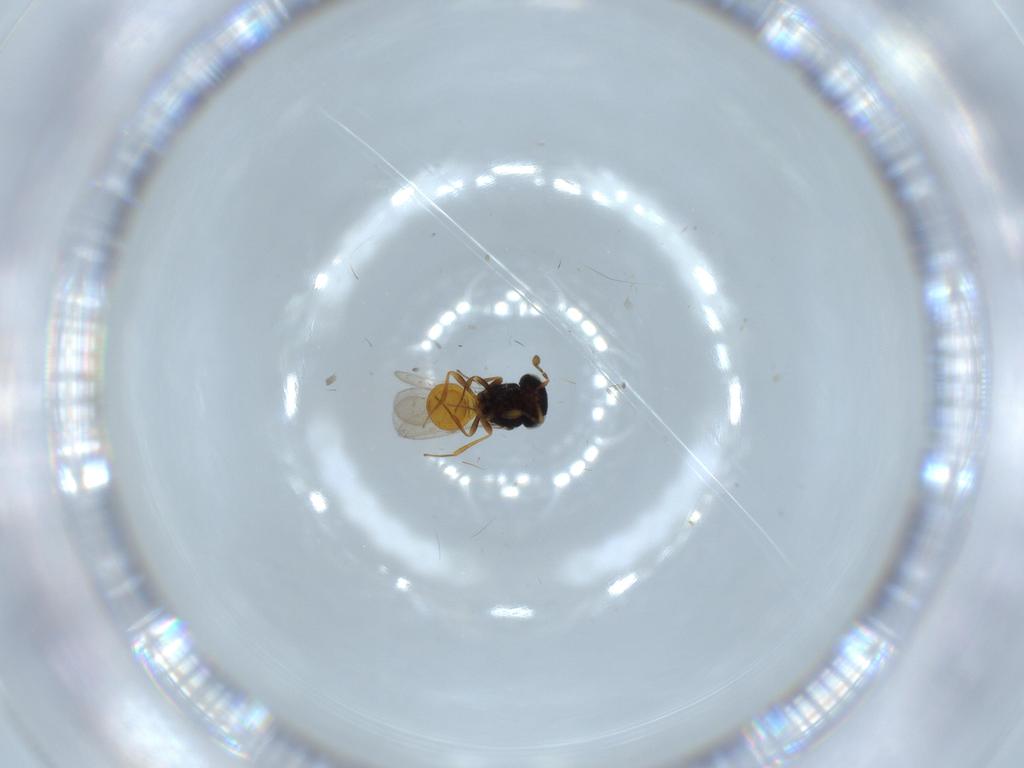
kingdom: Animalia
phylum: Arthropoda
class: Insecta
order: Hymenoptera
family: Scelionidae
